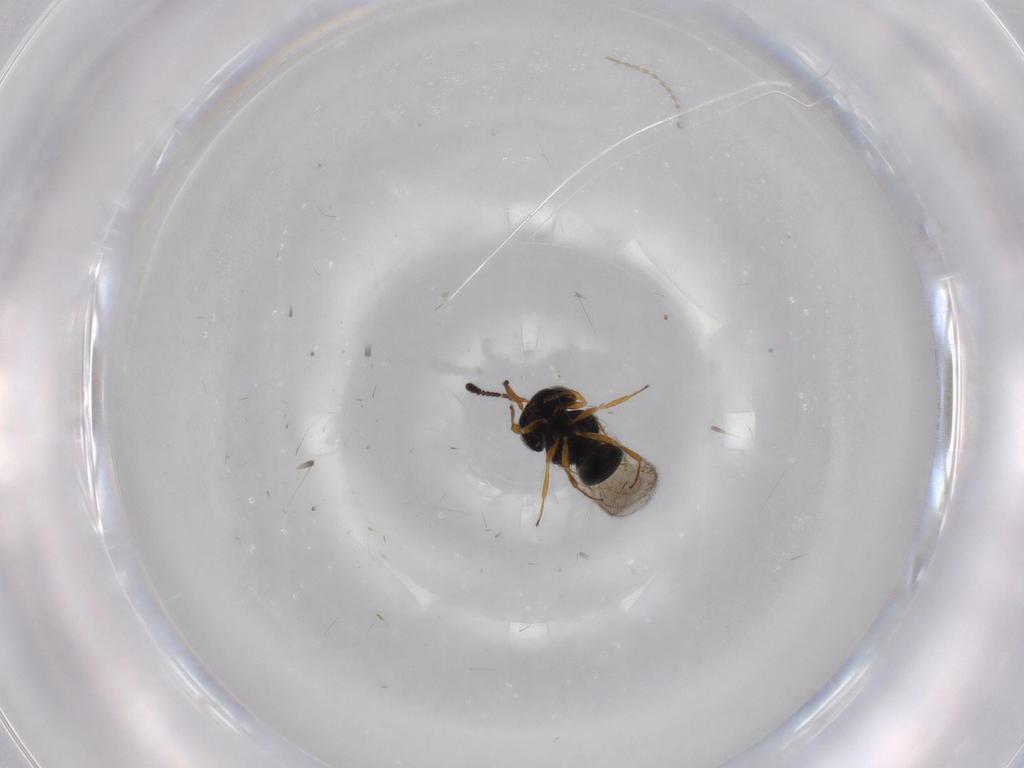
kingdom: Animalia
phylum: Arthropoda
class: Insecta
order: Hymenoptera
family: Scelionidae
